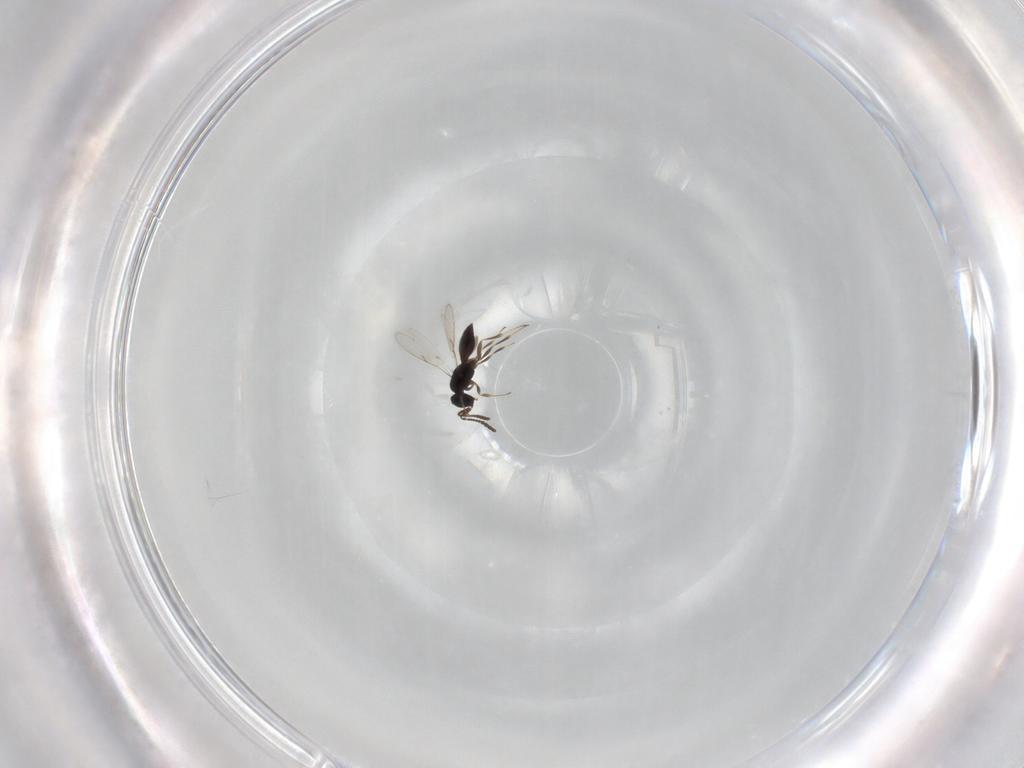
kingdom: Animalia
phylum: Arthropoda
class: Insecta
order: Hymenoptera
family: Scelionidae
